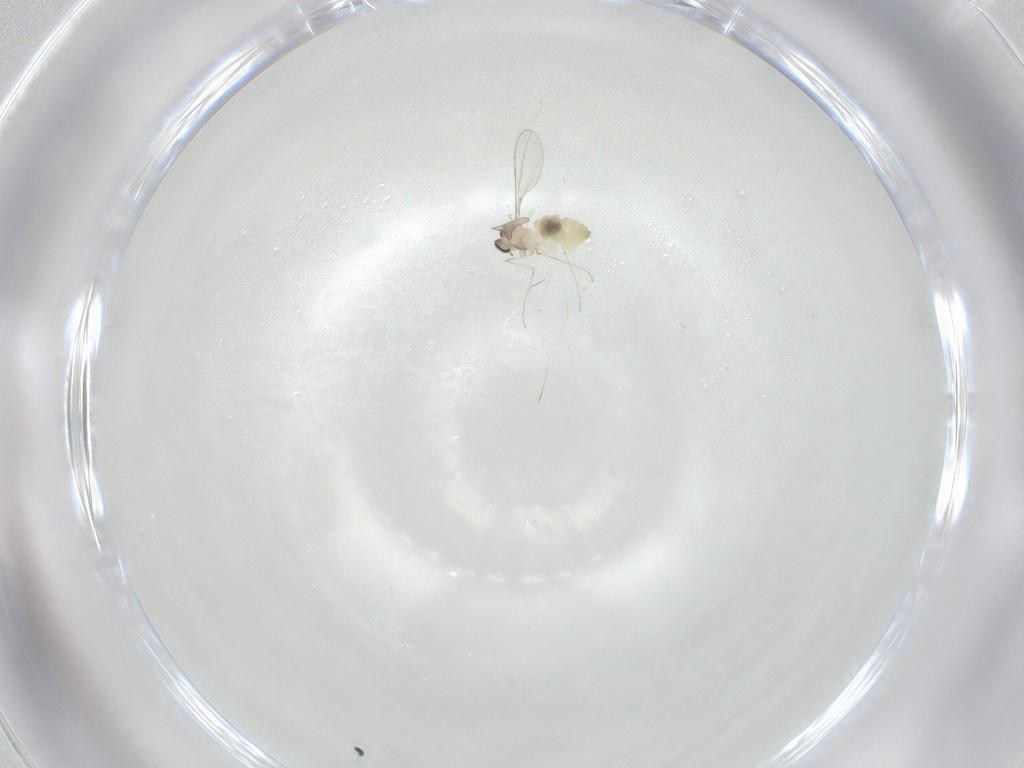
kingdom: Animalia
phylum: Arthropoda
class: Insecta
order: Diptera
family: Cecidomyiidae
